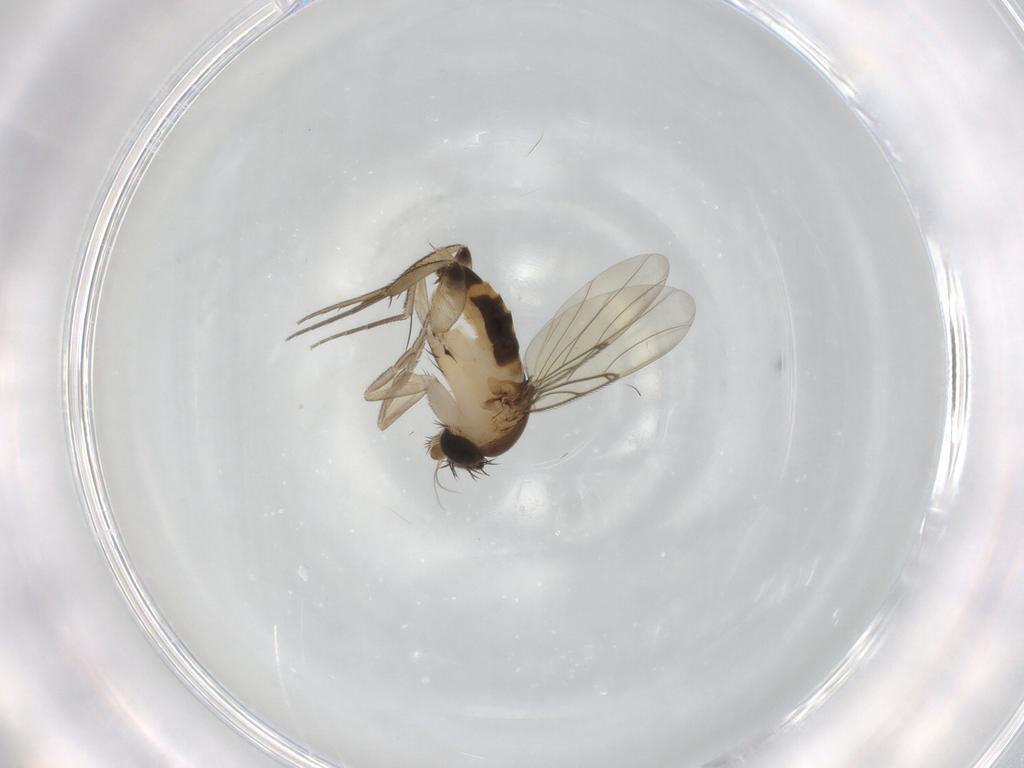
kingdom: Animalia
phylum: Arthropoda
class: Insecta
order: Diptera
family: Phoridae
